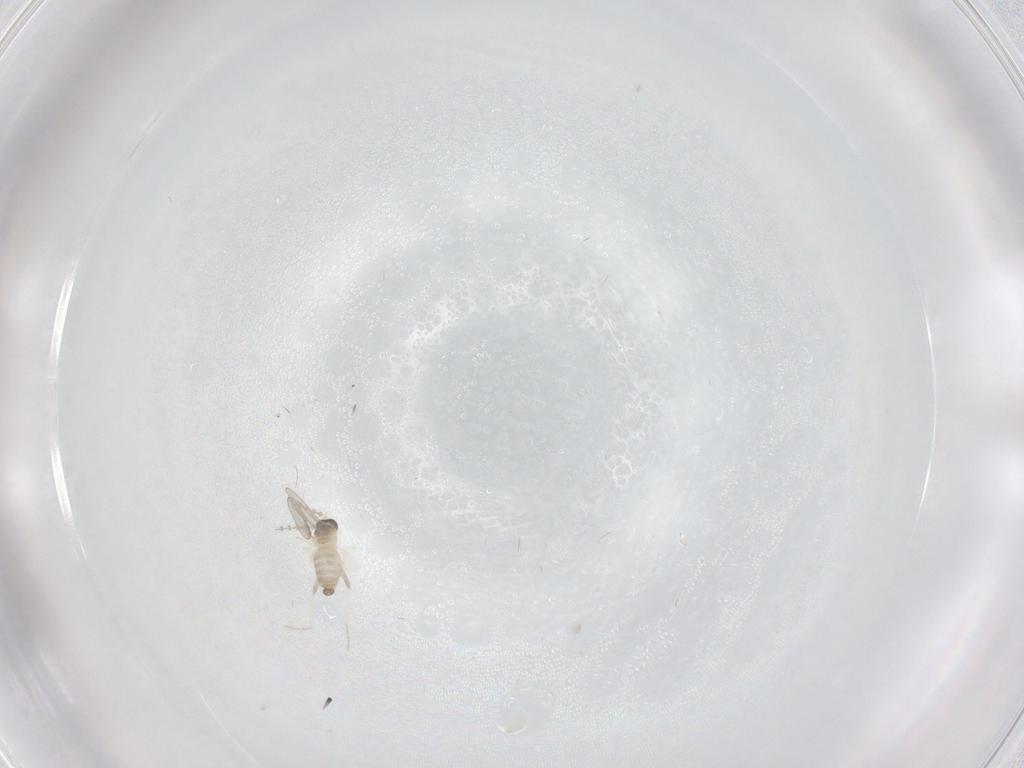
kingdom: Animalia
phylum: Arthropoda
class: Insecta
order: Diptera
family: Cecidomyiidae
